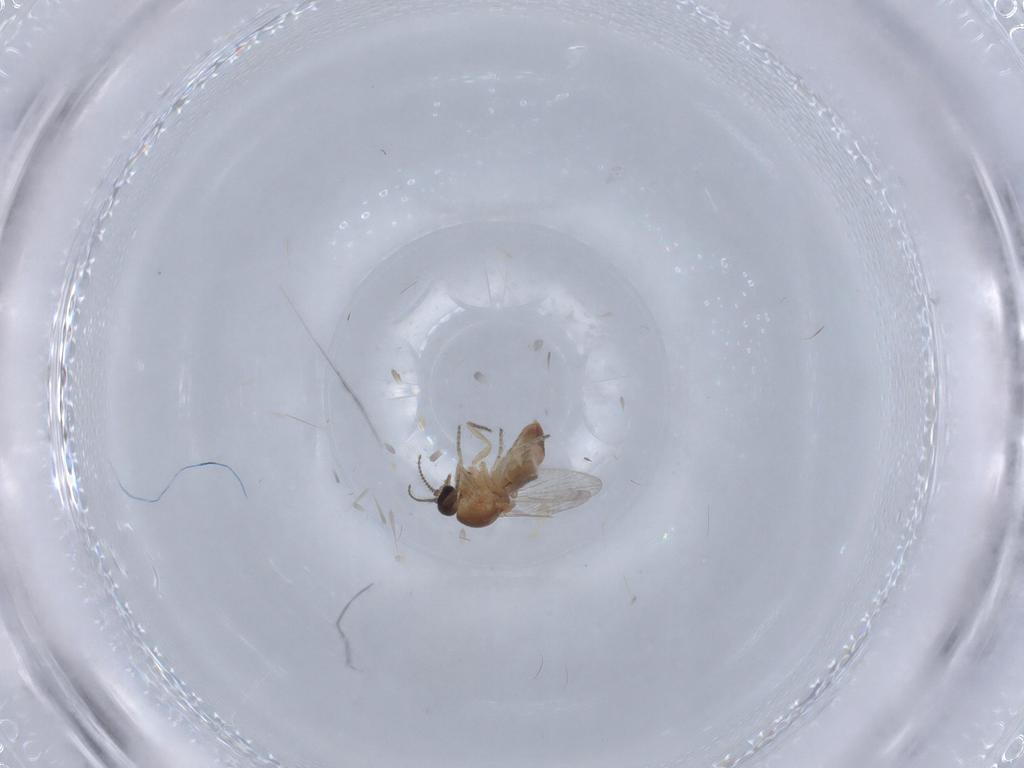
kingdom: Animalia
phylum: Arthropoda
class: Insecta
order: Diptera
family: Ceratopogonidae
